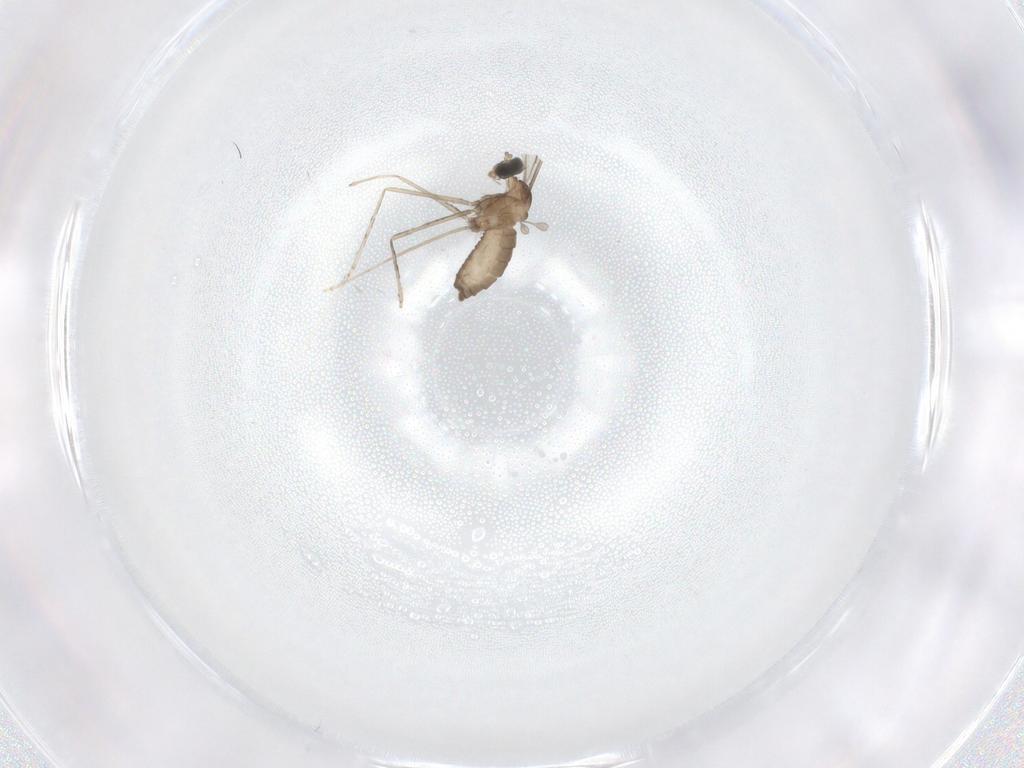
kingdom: Animalia
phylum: Arthropoda
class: Insecta
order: Diptera
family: Cecidomyiidae
